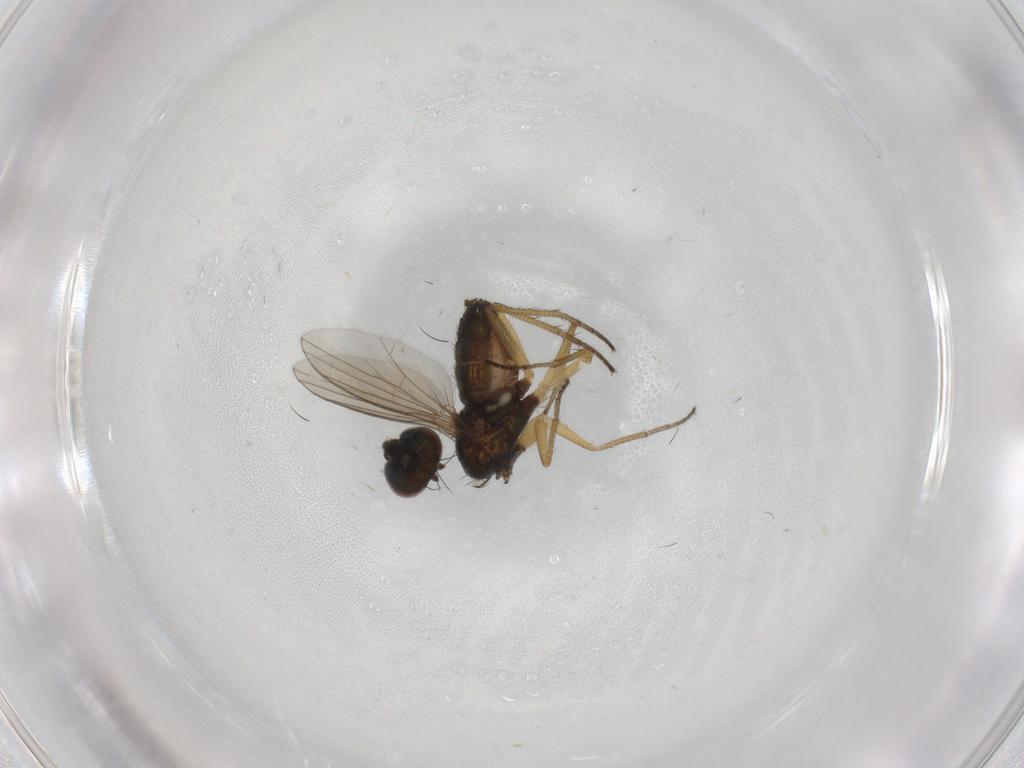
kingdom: Animalia
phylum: Arthropoda
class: Insecta
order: Diptera
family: Dolichopodidae
